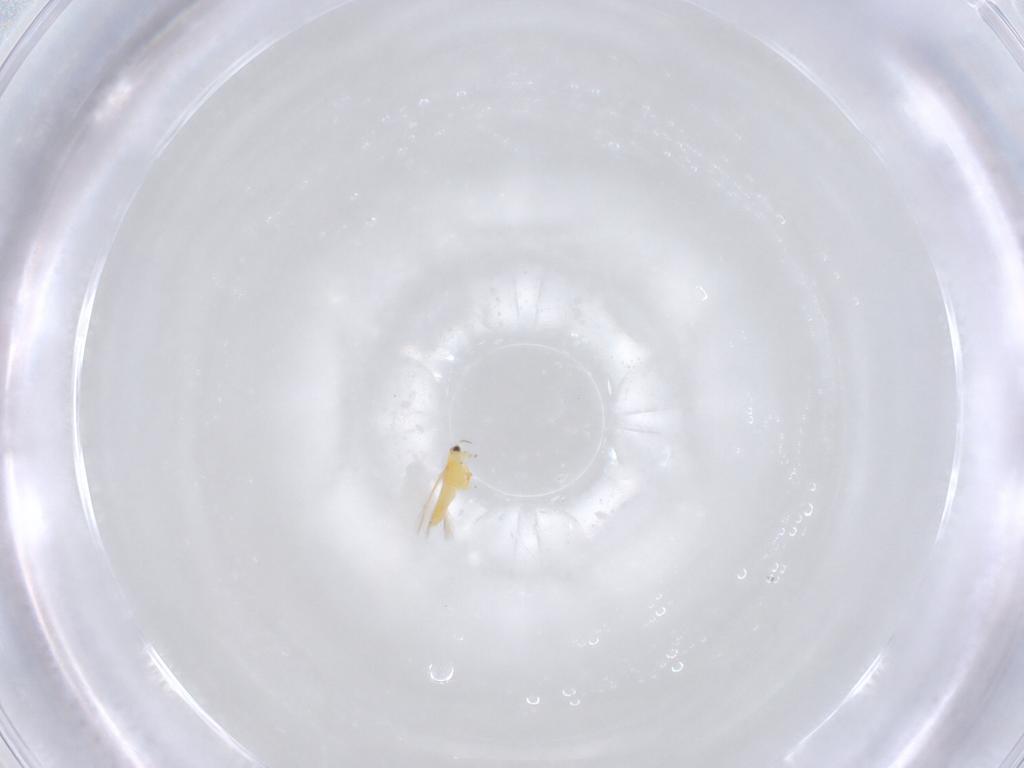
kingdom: Animalia
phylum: Arthropoda
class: Insecta
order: Thysanoptera
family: Thripidae
